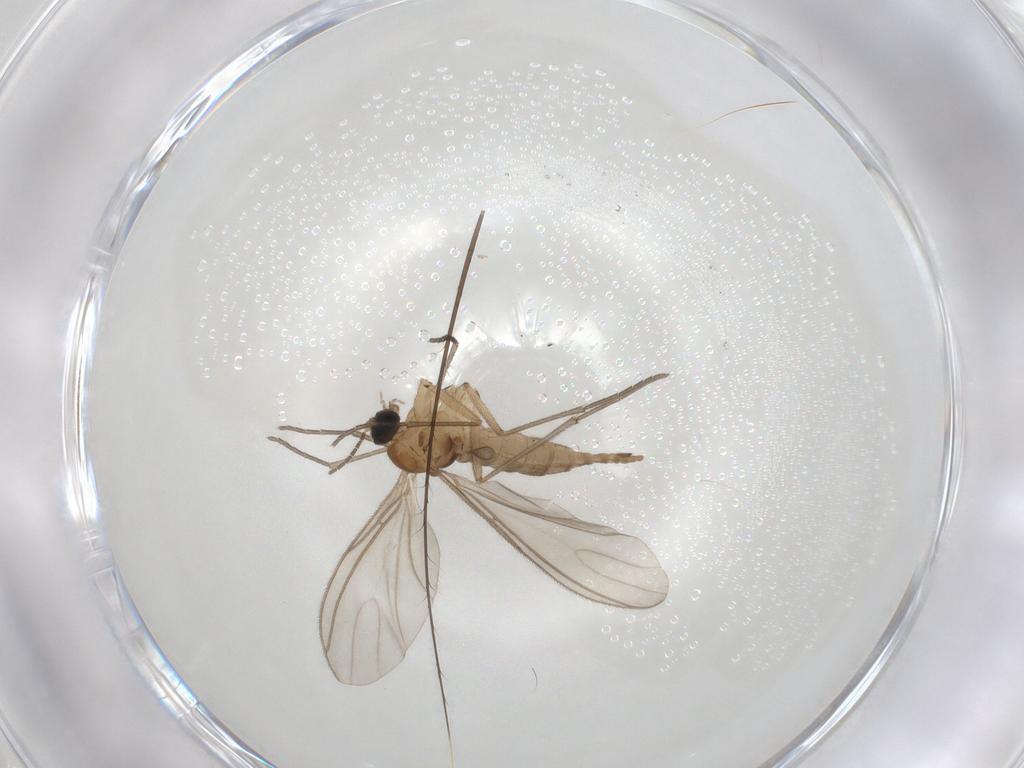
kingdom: Animalia
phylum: Arthropoda
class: Insecta
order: Diptera
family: Sciaridae
